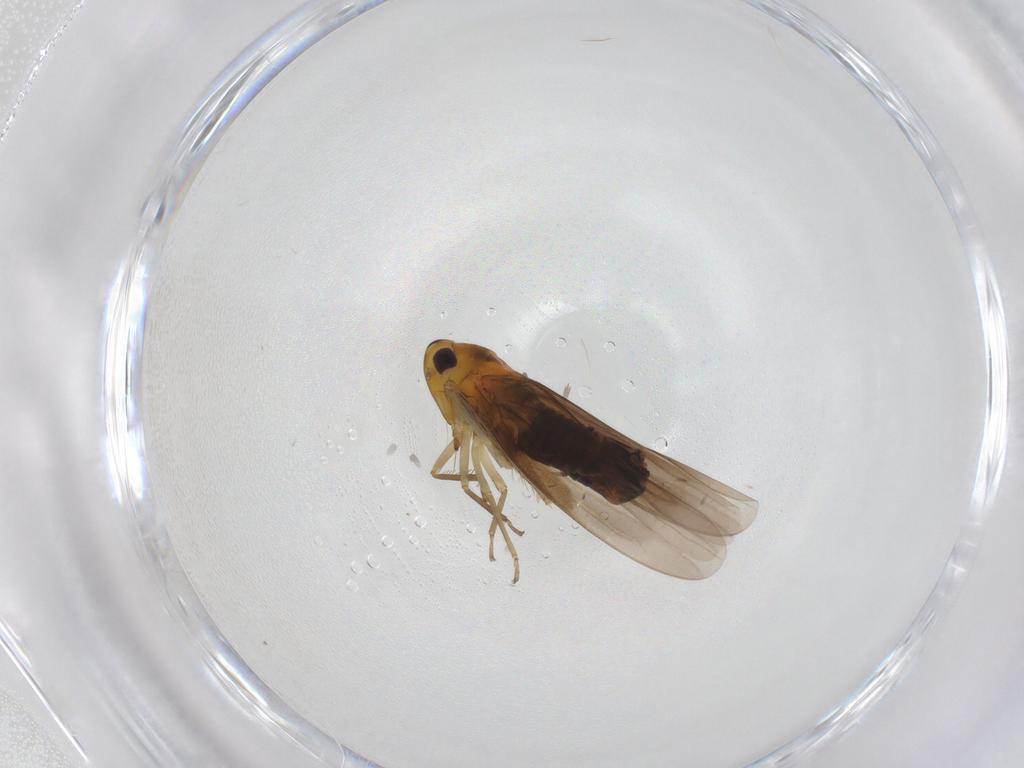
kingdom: Animalia
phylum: Arthropoda
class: Insecta
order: Hemiptera
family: Cicadellidae
